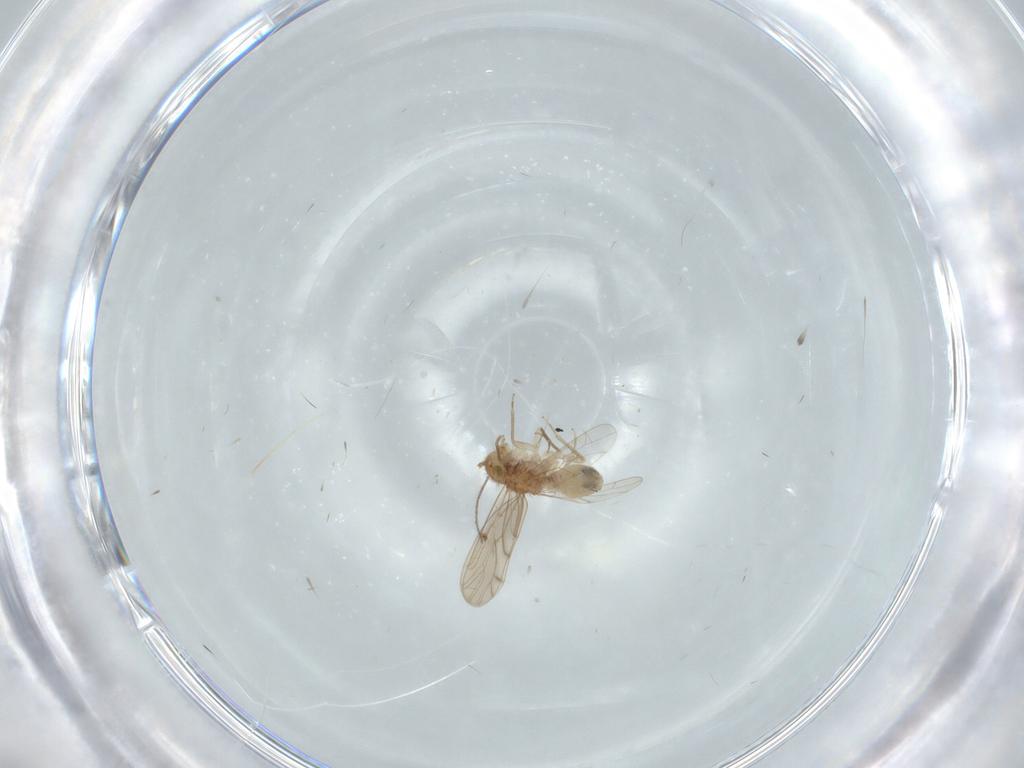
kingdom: Animalia
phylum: Arthropoda
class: Insecta
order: Psocodea
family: Ectopsocidae
